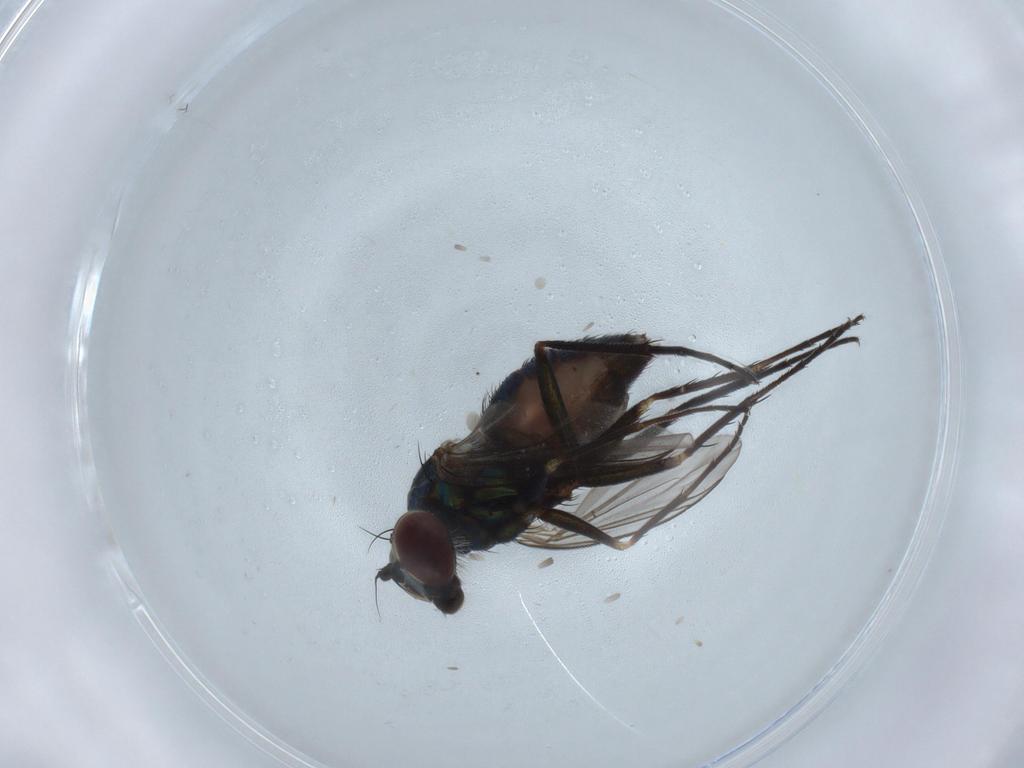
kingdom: Animalia
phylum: Arthropoda
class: Insecta
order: Diptera
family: Dolichopodidae
